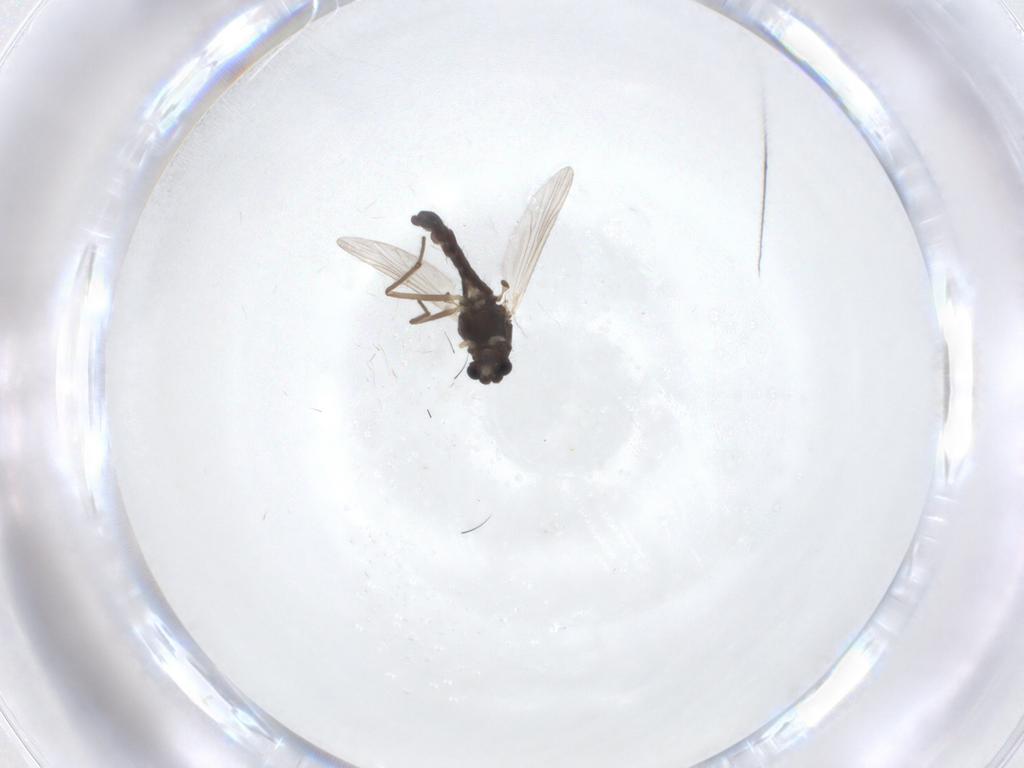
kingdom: Animalia
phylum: Arthropoda
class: Insecta
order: Diptera
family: Chironomidae
